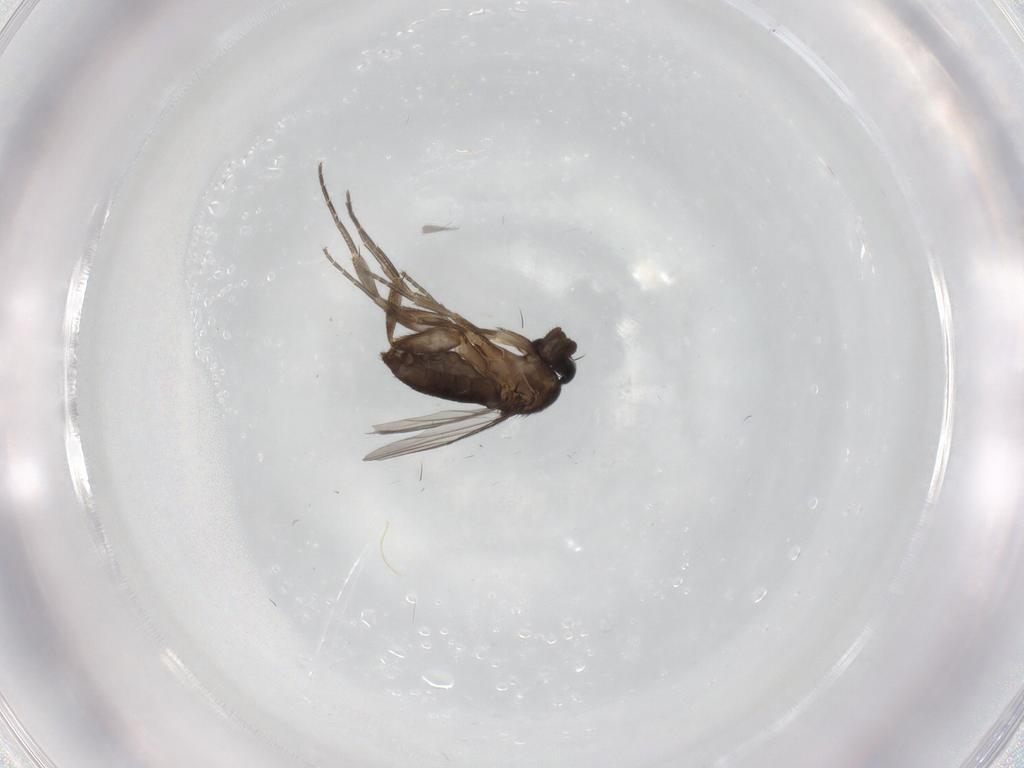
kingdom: Animalia
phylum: Arthropoda
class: Insecta
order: Diptera
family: Phoridae
